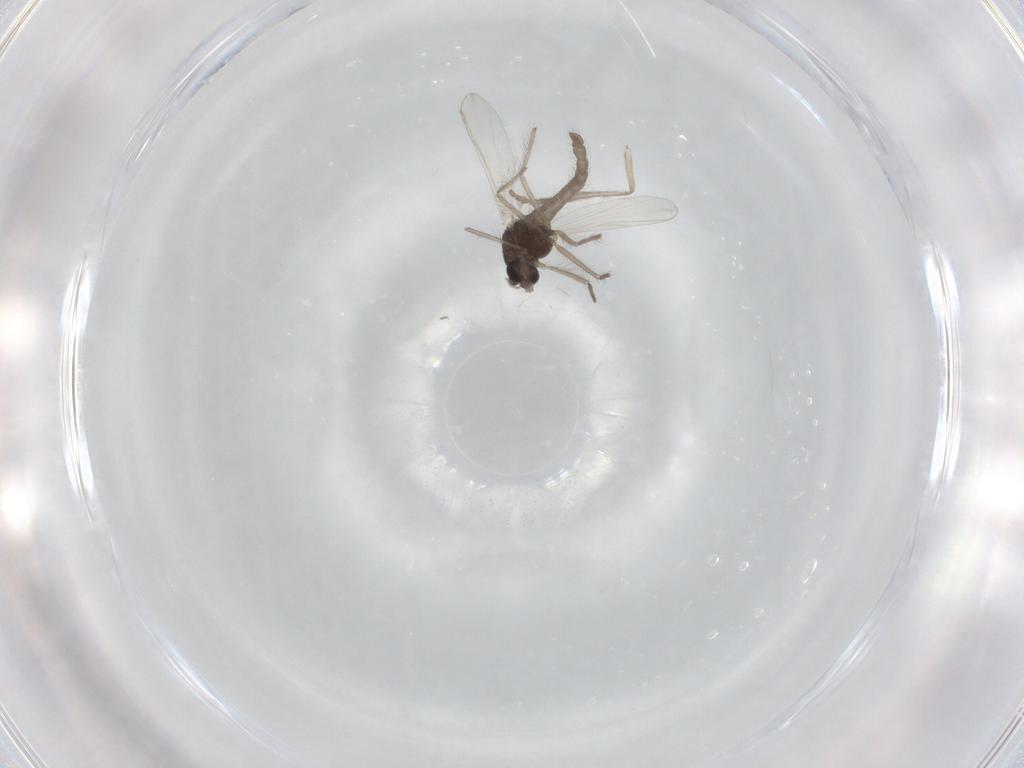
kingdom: Animalia
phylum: Arthropoda
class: Insecta
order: Diptera
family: Chironomidae
